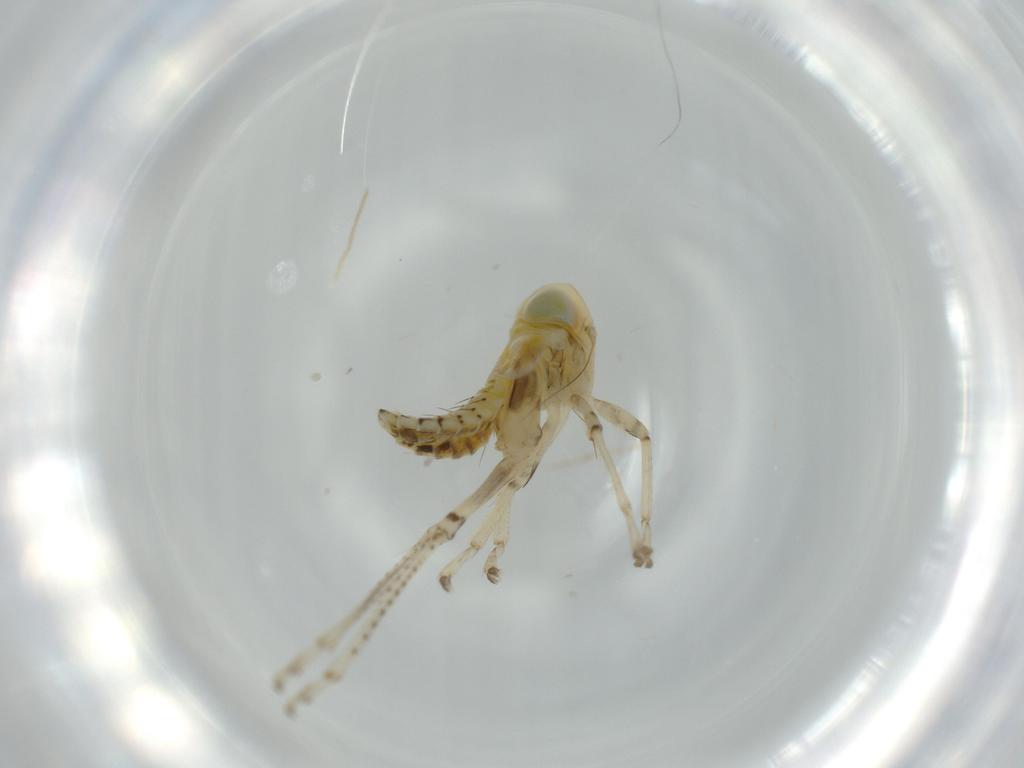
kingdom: Animalia
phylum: Arthropoda
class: Insecta
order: Hemiptera
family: Cicadellidae
